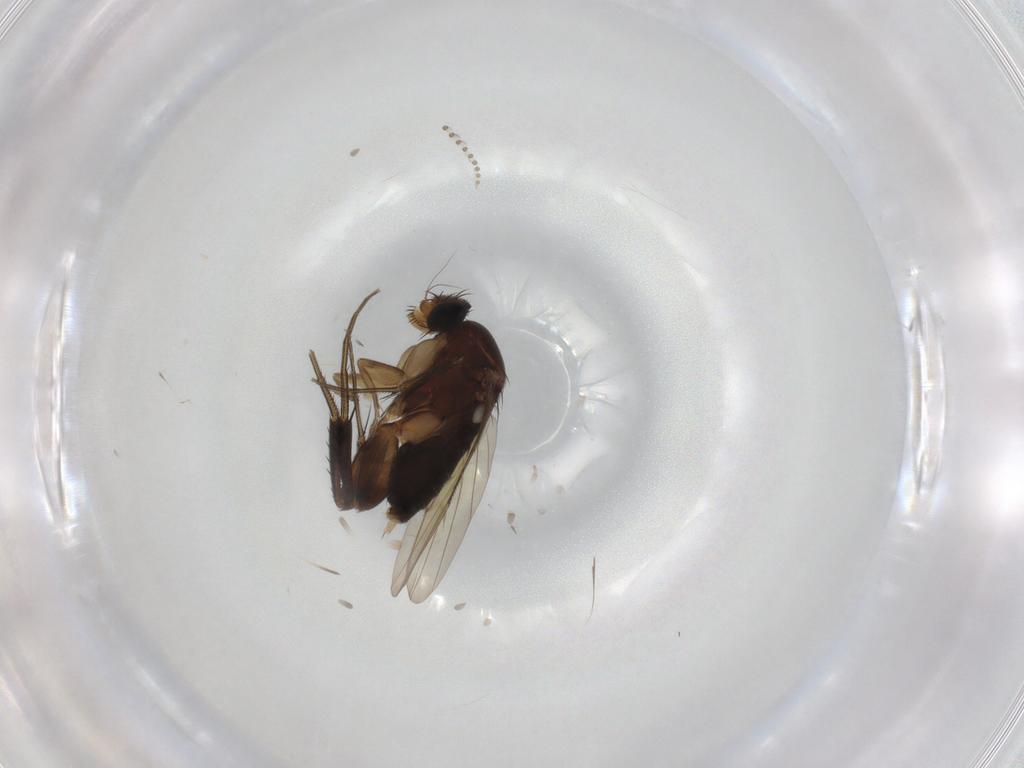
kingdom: Animalia
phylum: Arthropoda
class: Insecta
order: Diptera
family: Phoridae
